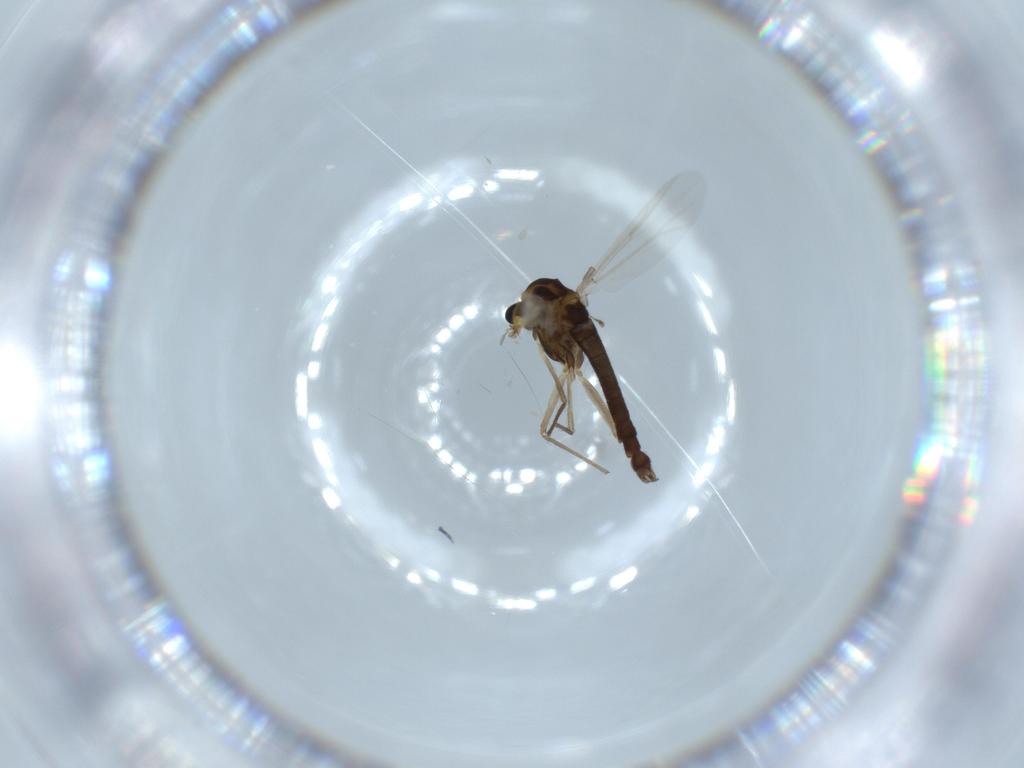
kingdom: Animalia
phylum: Arthropoda
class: Insecta
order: Diptera
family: Chironomidae
